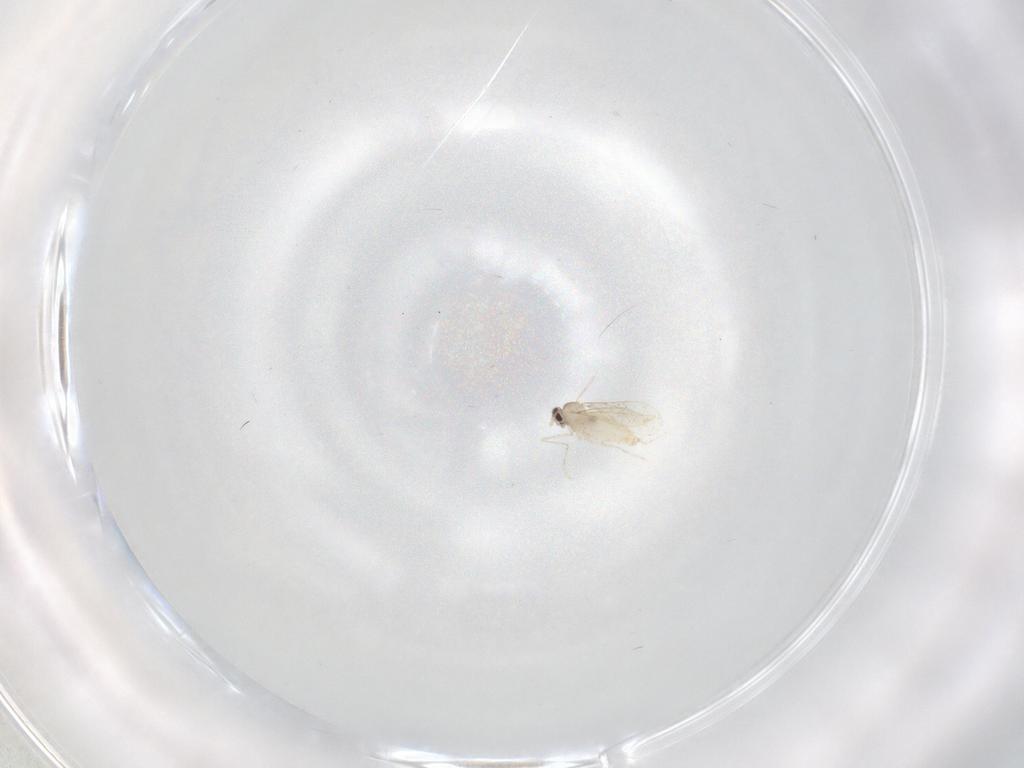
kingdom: Animalia
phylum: Arthropoda
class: Insecta
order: Diptera
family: Cecidomyiidae
